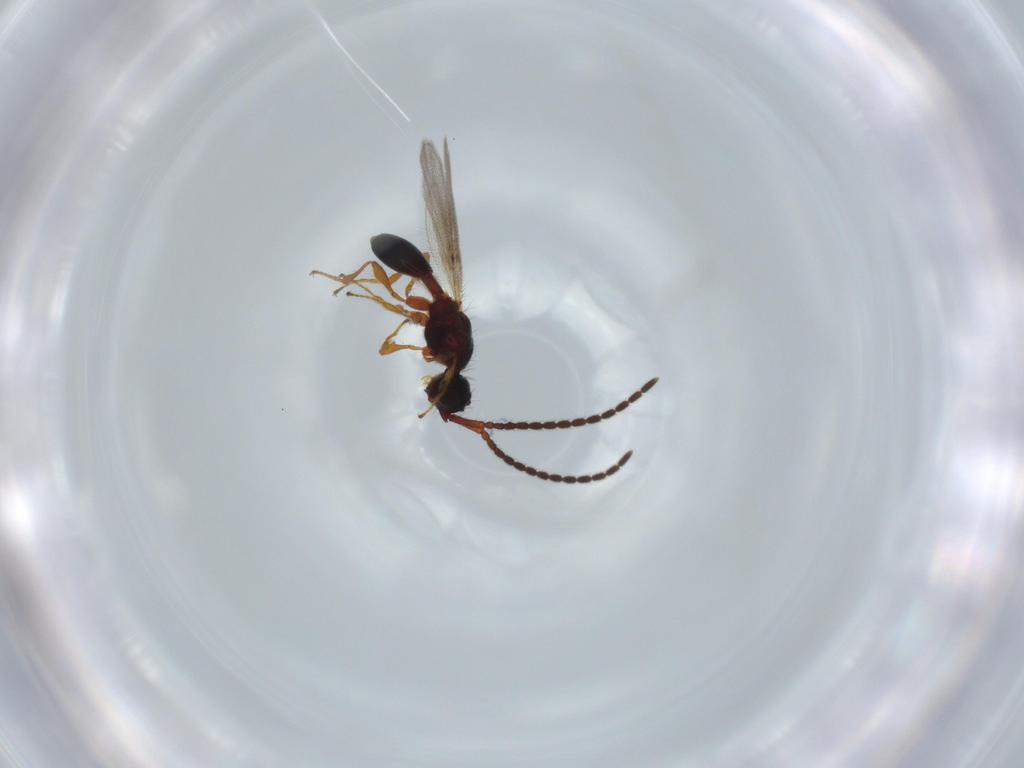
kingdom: Animalia
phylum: Arthropoda
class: Insecta
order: Hymenoptera
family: Diapriidae
